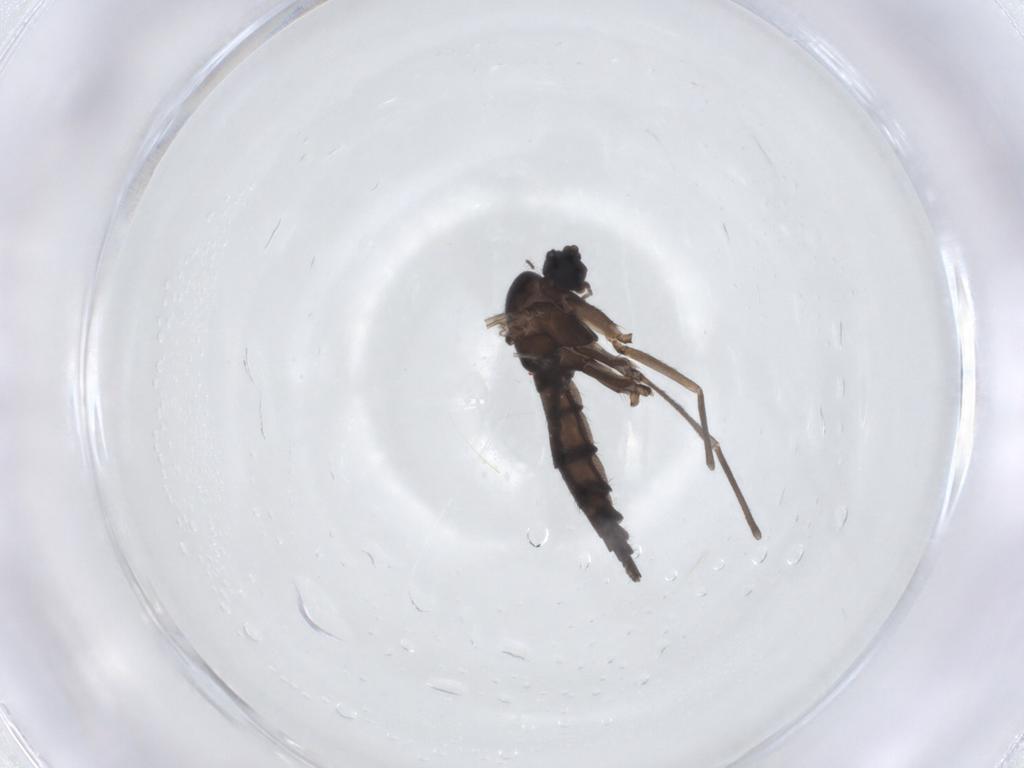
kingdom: Animalia
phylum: Arthropoda
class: Insecta
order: Diptera
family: Sciaridae
